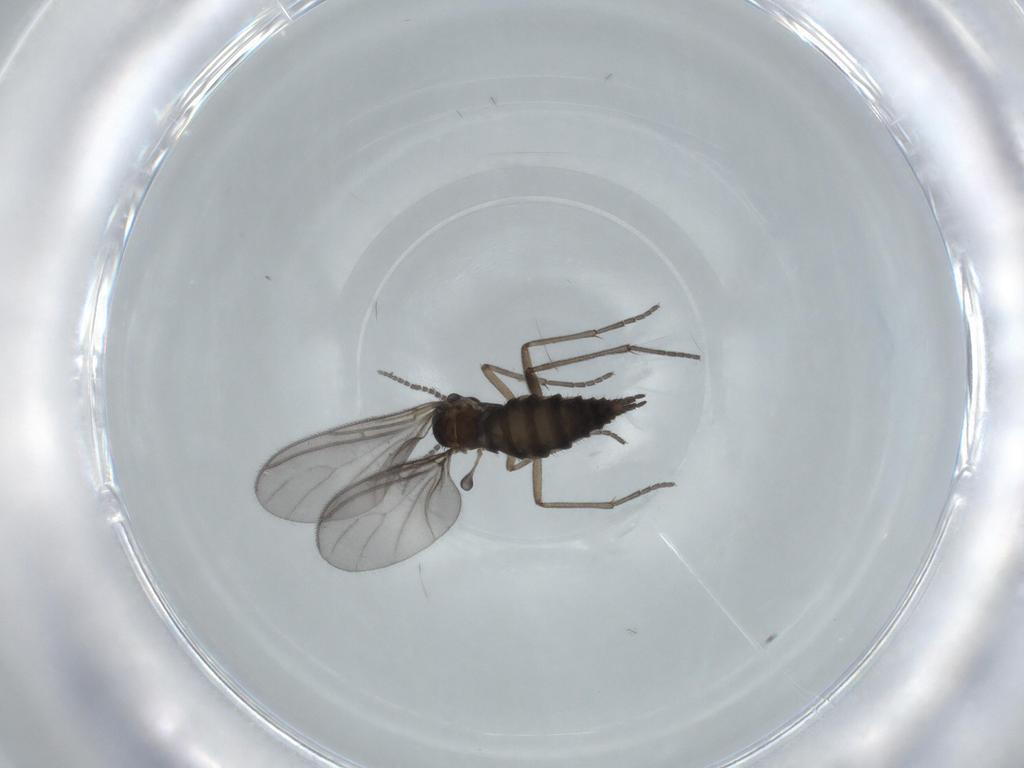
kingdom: Animalia
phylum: Arthropoda
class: Insecta
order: Diptera
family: Sciaridae
